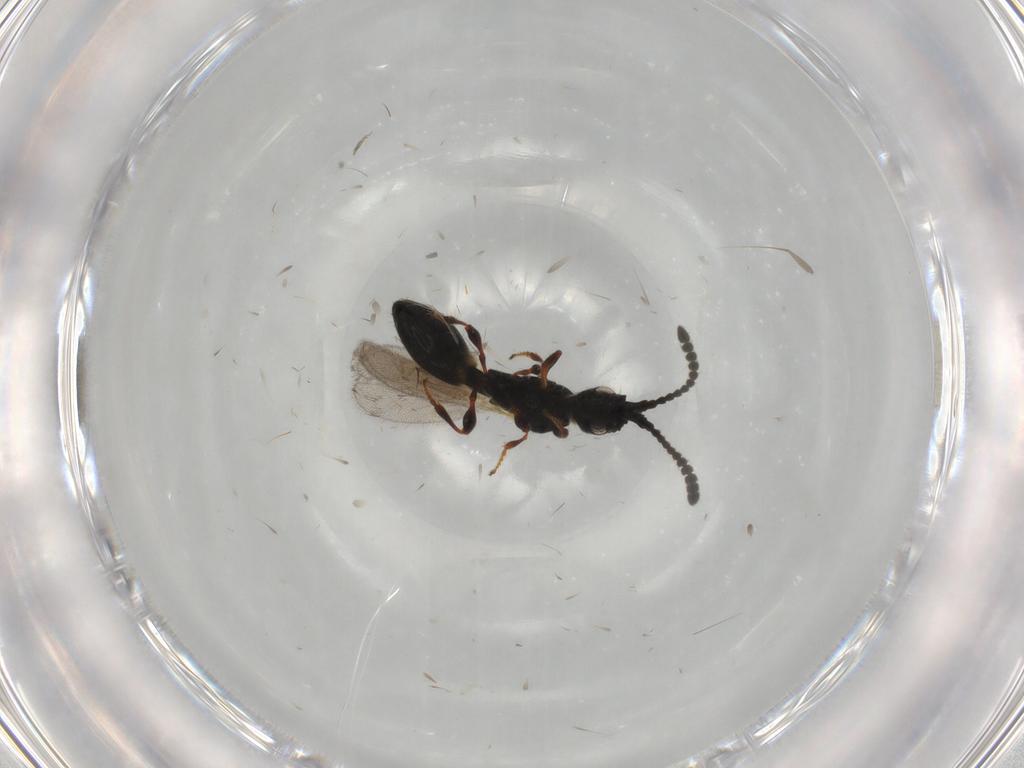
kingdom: Animalia
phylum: Arthropoda
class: Insecta
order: Hymenoptera
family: Diapriidae
